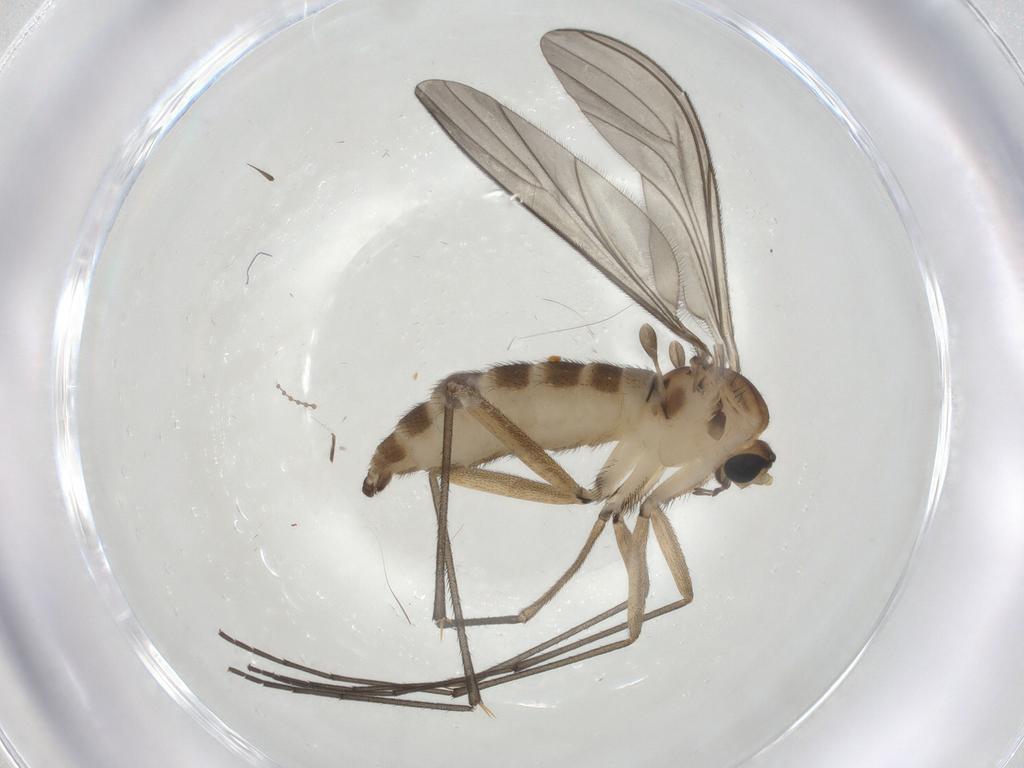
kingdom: Animalia
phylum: Arthropoda
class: Insecta
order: Diptera
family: Sciaridae
